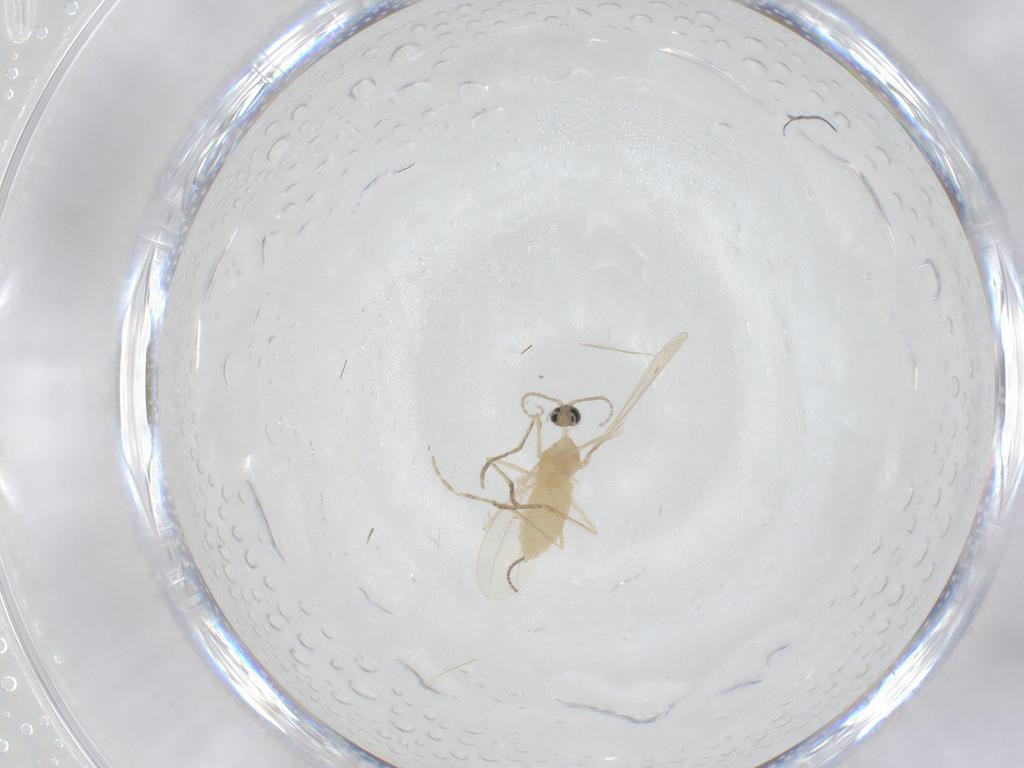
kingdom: Animalia
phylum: Arthropoda
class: Insecta
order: Diptera
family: Cecidomyiidae
